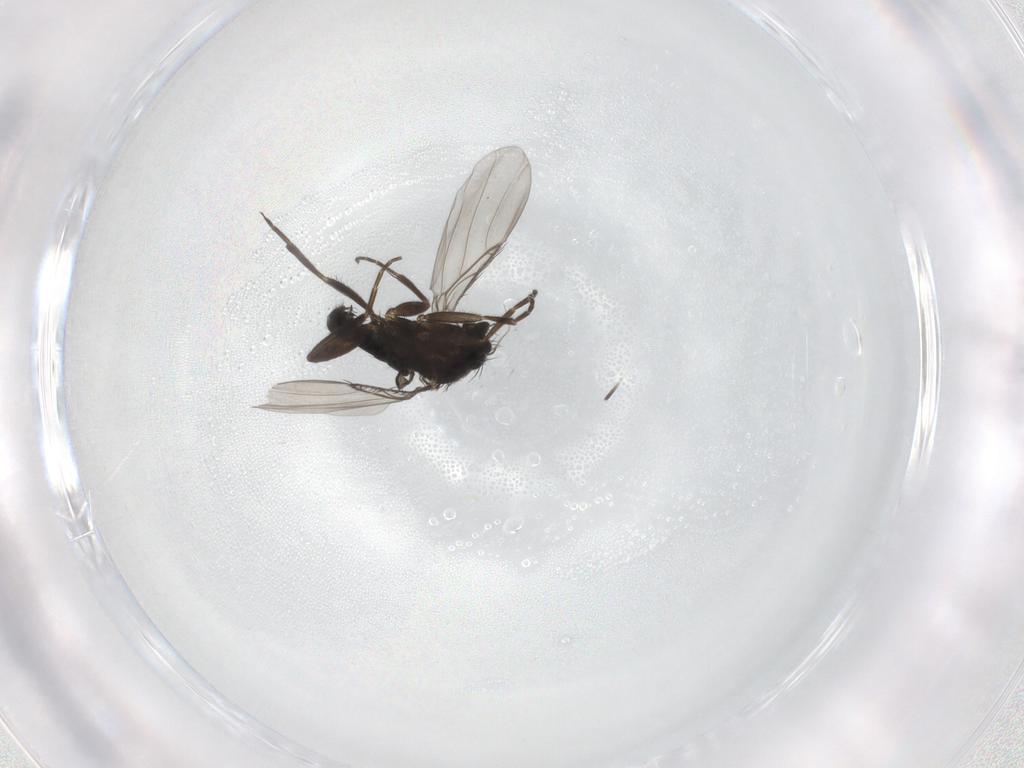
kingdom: Animalia
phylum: Arthropoda
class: Insecta
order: Diptera
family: Phoridae
